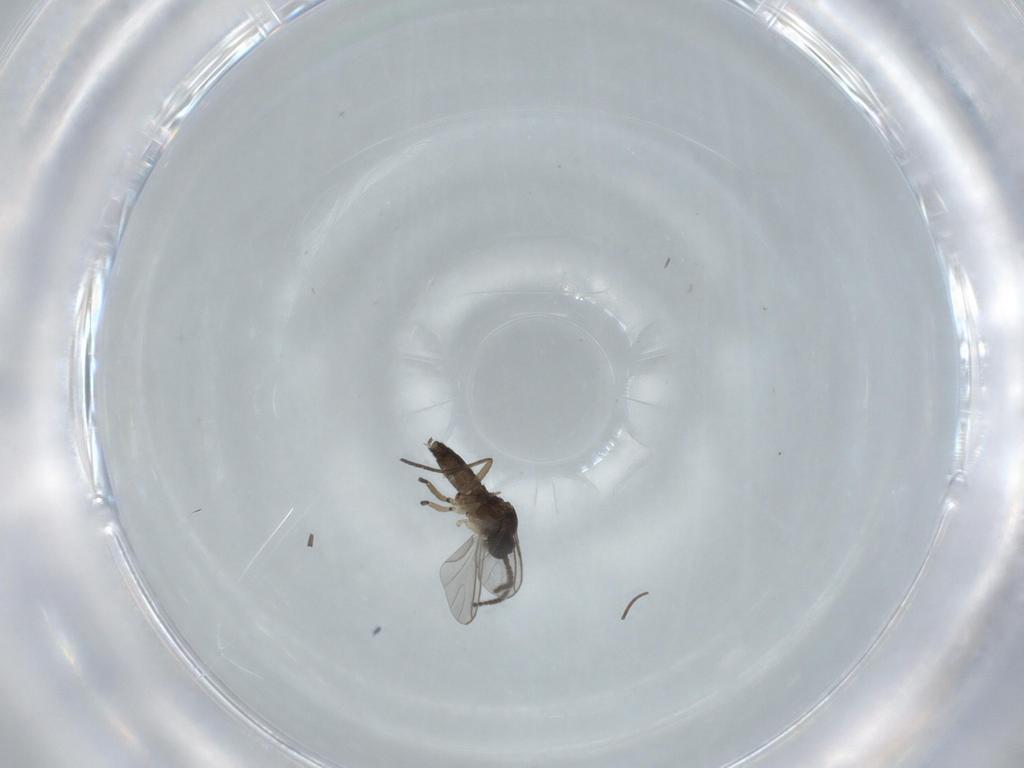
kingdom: Animalia
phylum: Arthropoda
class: Insecta
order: Diptera
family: Sciaridae
